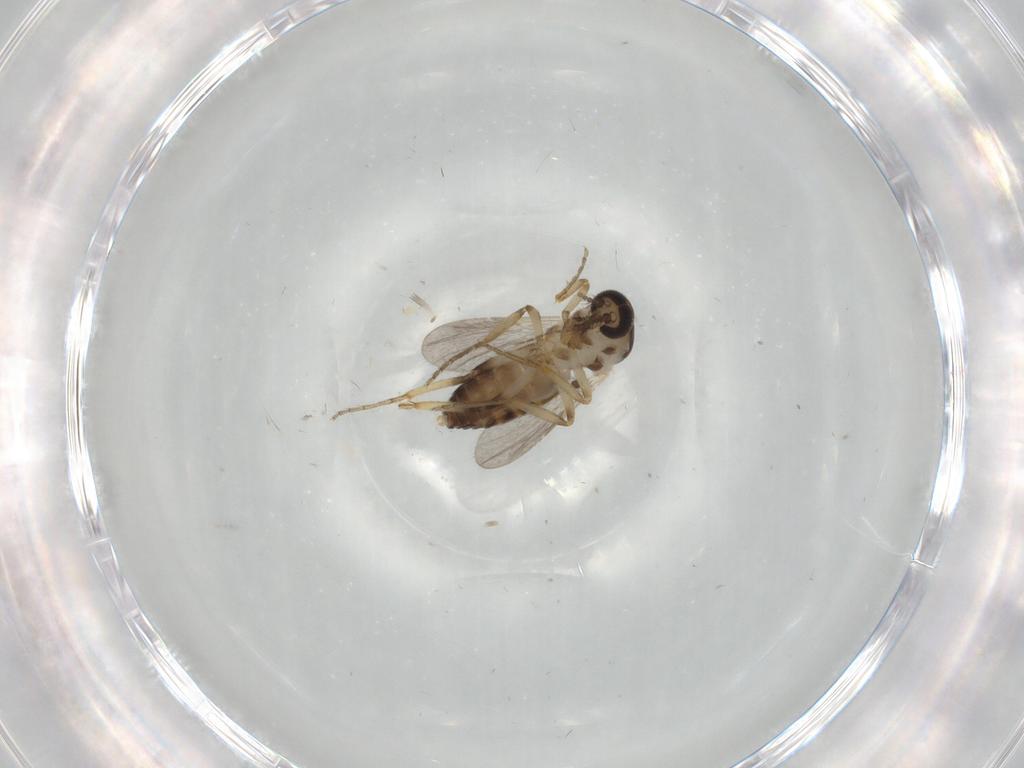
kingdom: Animalia
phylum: Arthropoda
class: Insecta
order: Diptera
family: Ceratopogonidae
